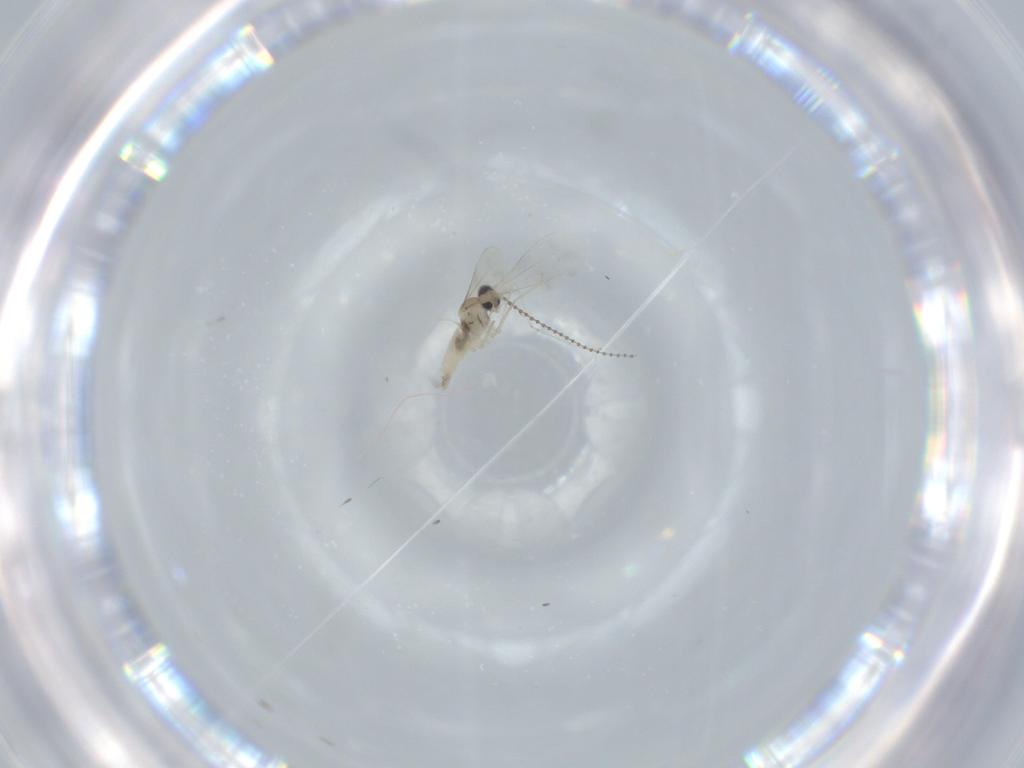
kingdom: Animalia
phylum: Arthropoda
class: Insecta
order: Diptera
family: Cecidomyiidae
